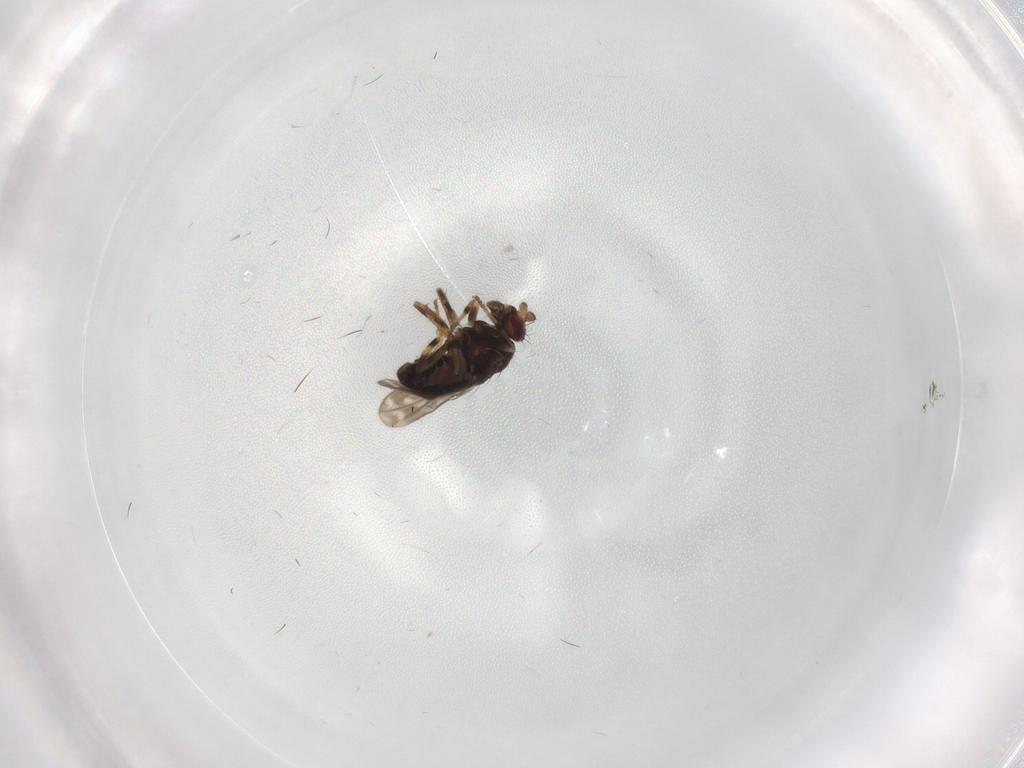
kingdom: Animalia
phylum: Arthropoda
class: Insecta
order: Diptera
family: Sphaeroceridae
